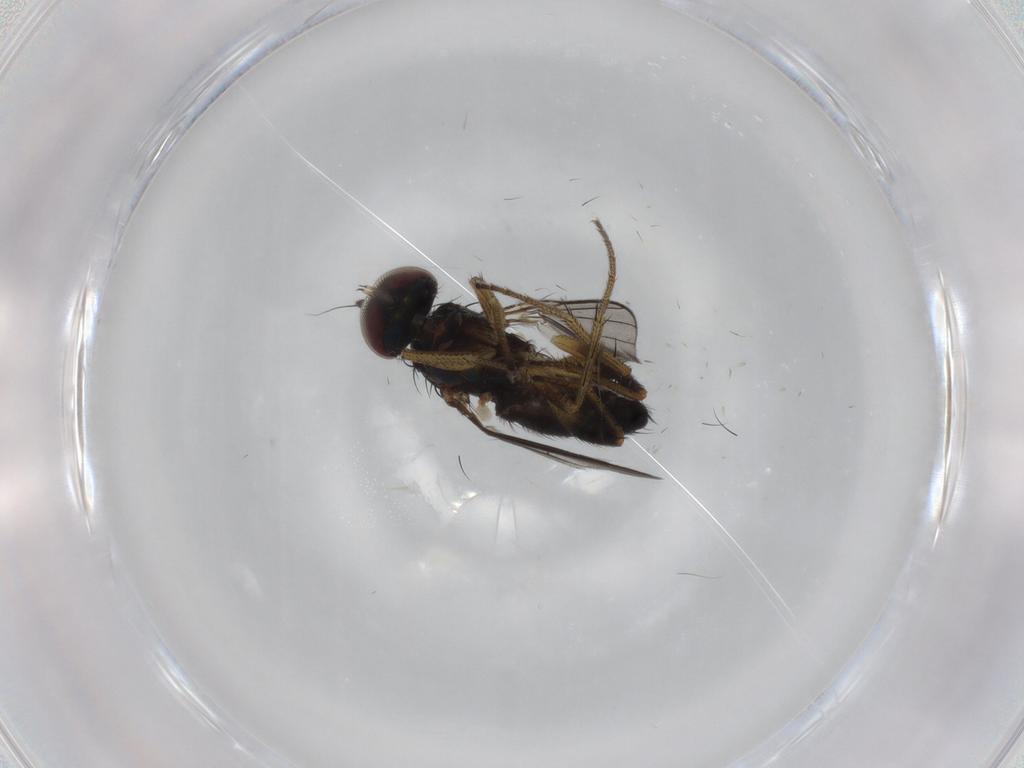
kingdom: Animalia
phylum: Arthropoda
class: Insecta
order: Diptera
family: Dolichopodidae
